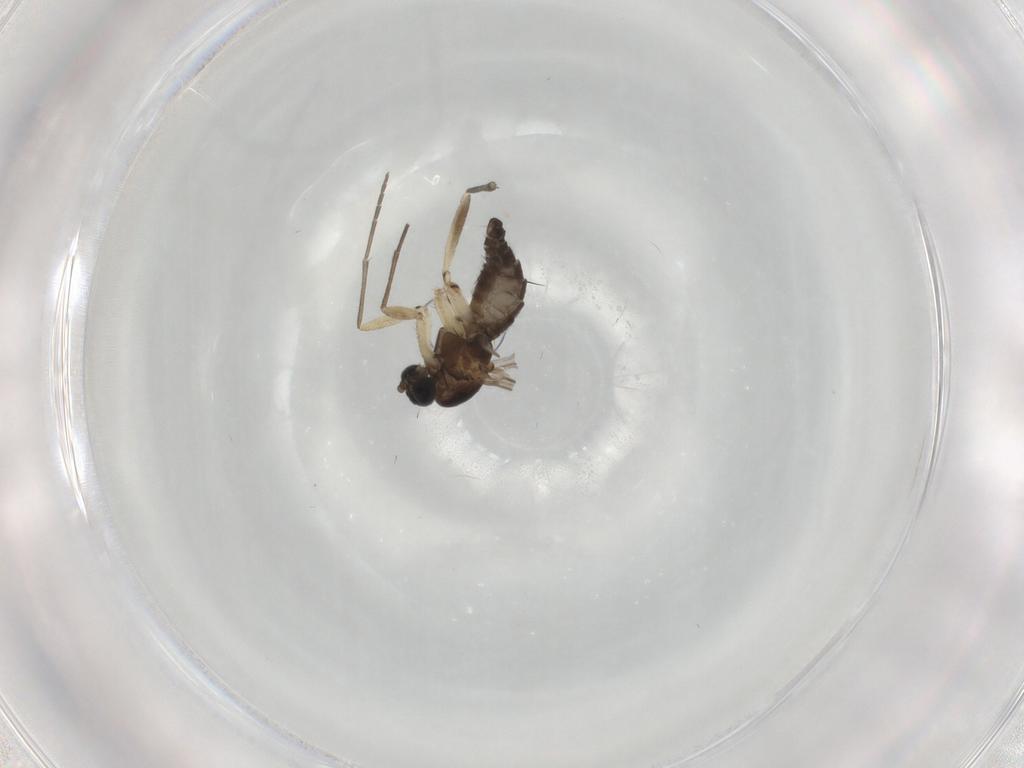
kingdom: Animalia
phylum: Arthropoda
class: Insecta
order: Diptera
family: Sciaridae
